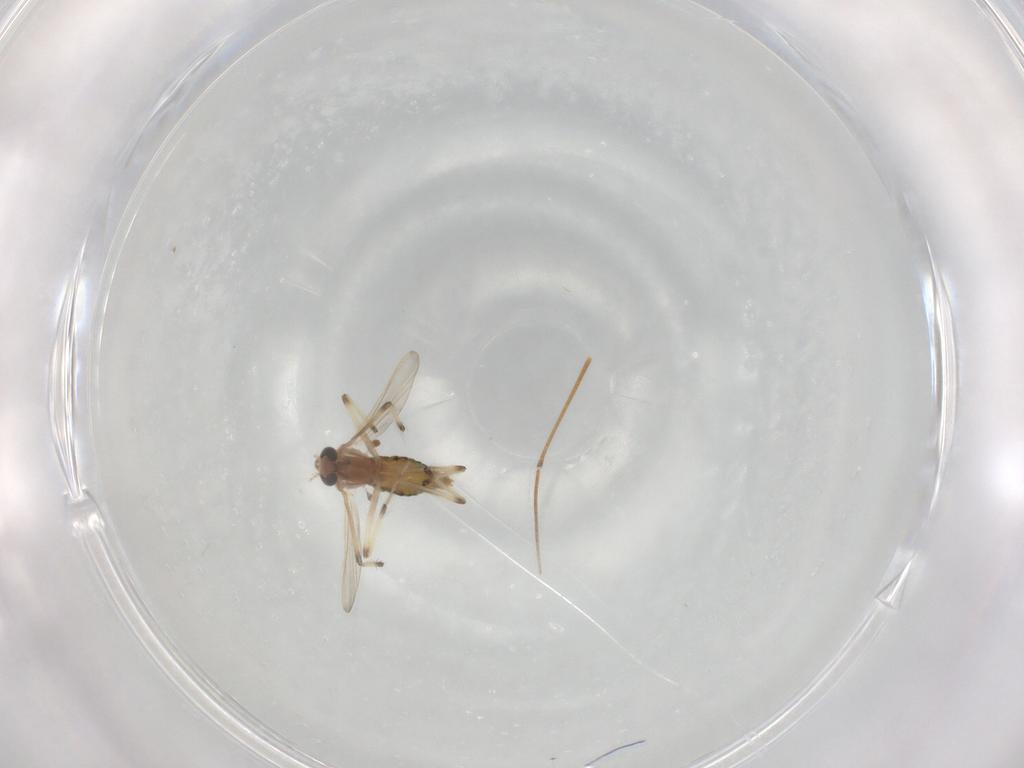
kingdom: Animalia
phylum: Arthropoda
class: Insecta
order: Diptera
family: Chironomidae
